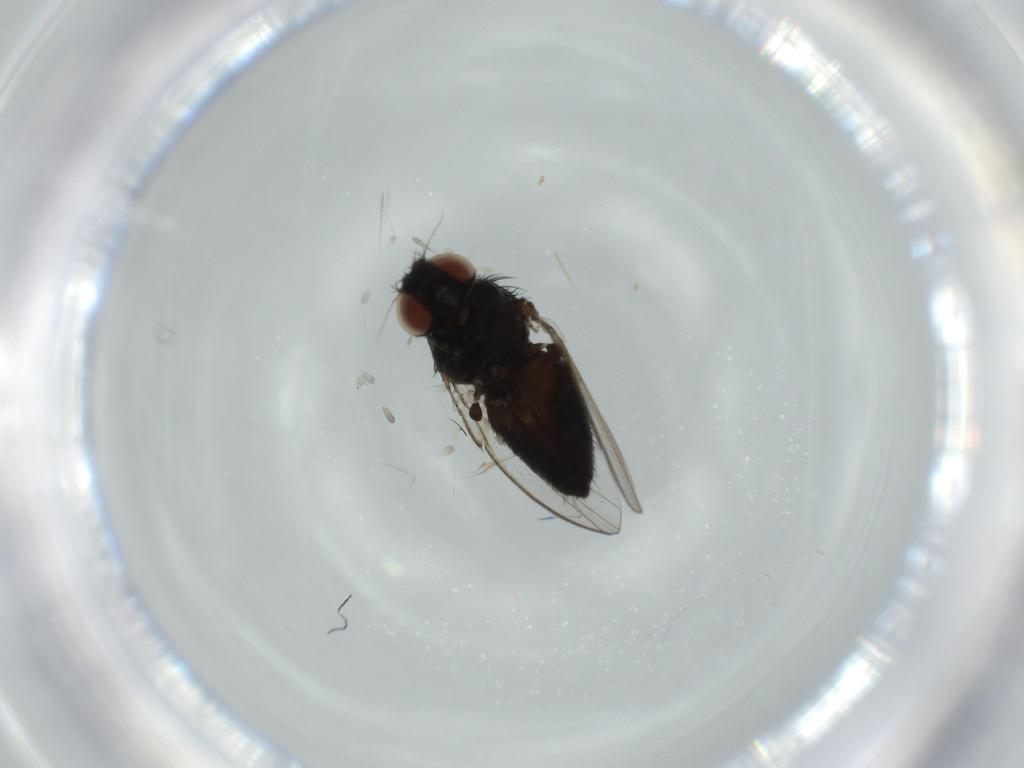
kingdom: Animalia
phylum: Arthropoda
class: Insecta
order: Diptera
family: Milichiidae
